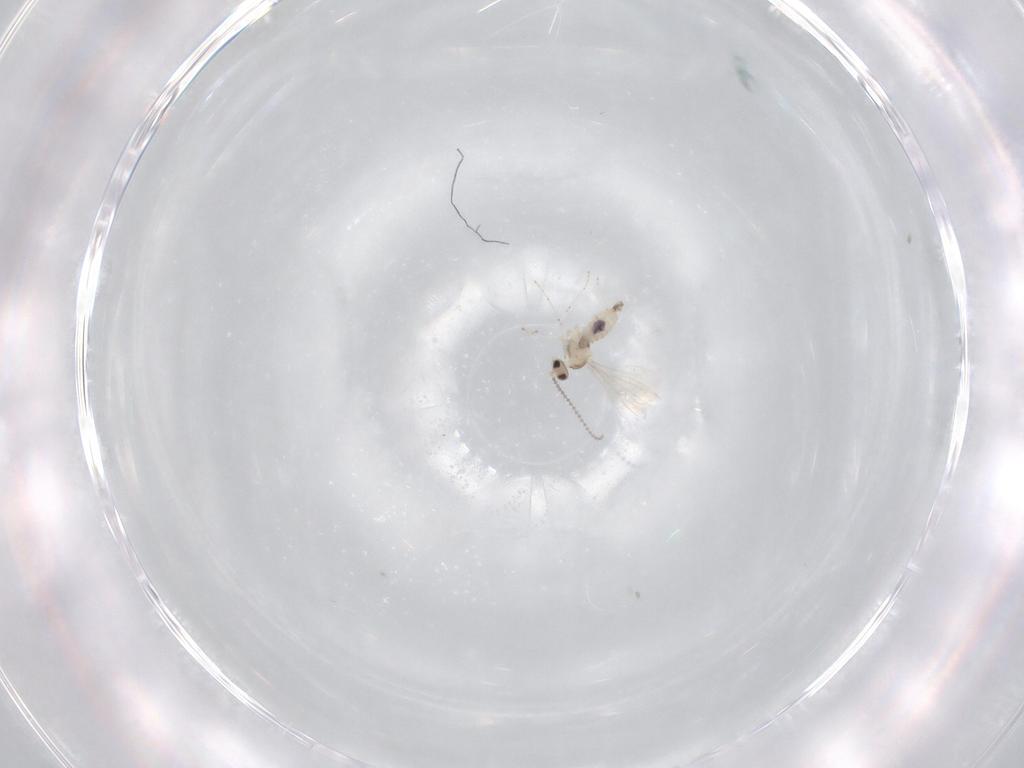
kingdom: Animalia
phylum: Arthropoda
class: Insecta
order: Diptera
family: Cecidomyiidae
